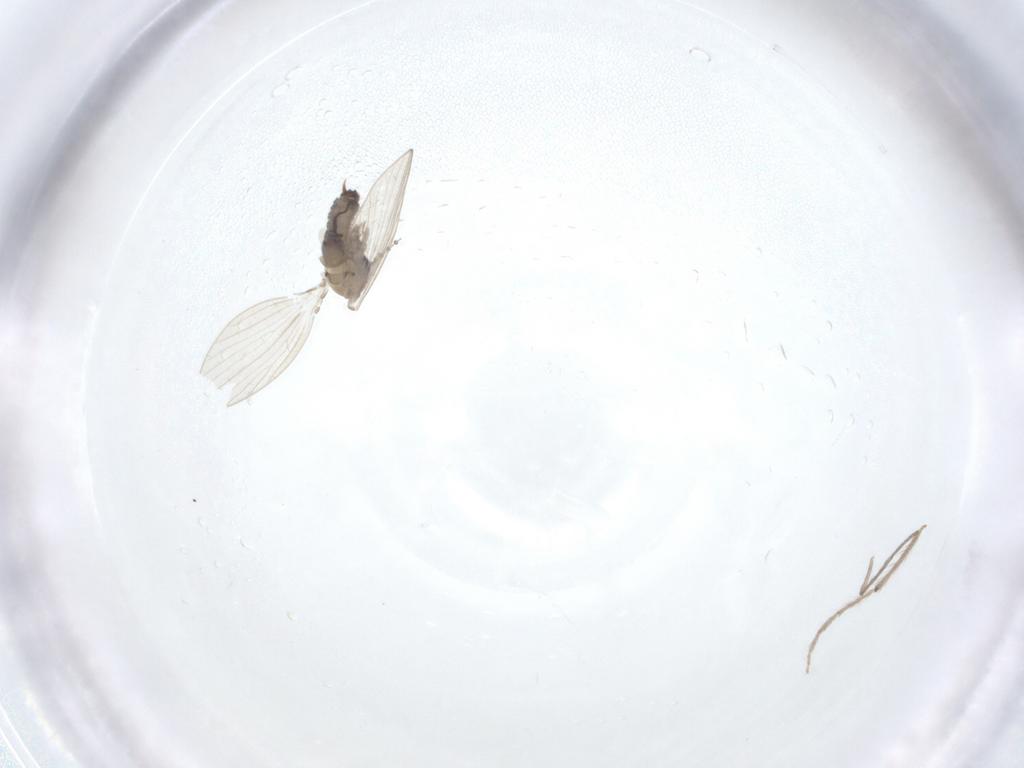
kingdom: Animalia
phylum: Arthropoda
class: Insecta
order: Diptera
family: Psychodidae
